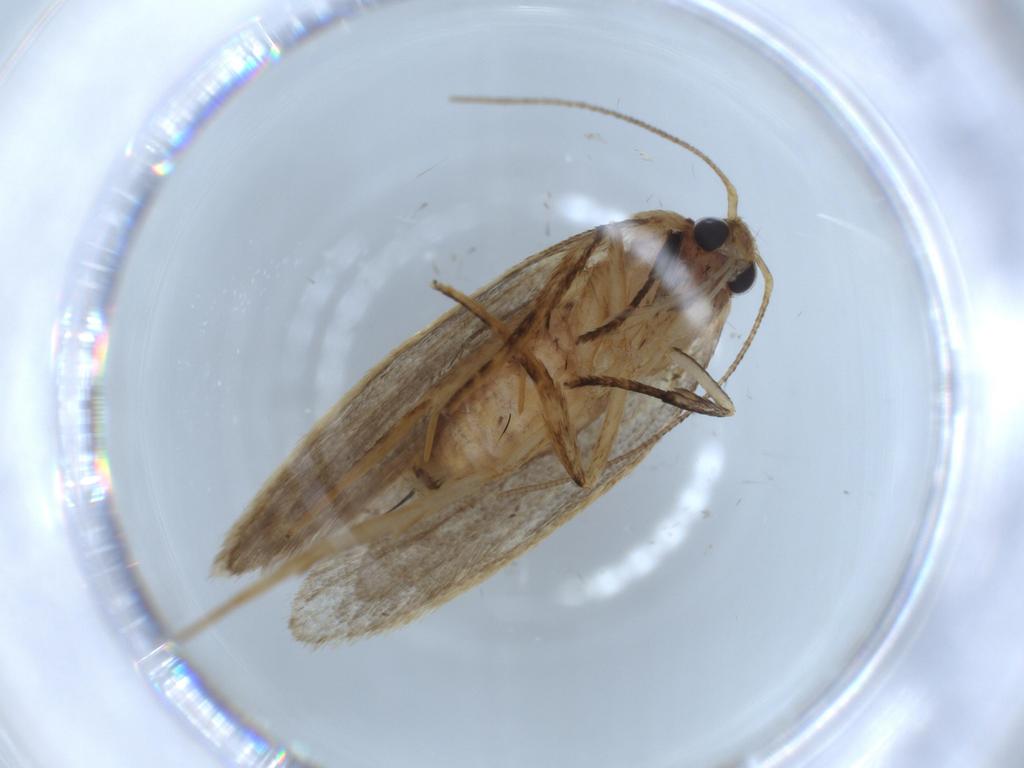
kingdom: Animalia
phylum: Arthropoda
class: Insecta
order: Lepidoptera
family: Oecophoridae
